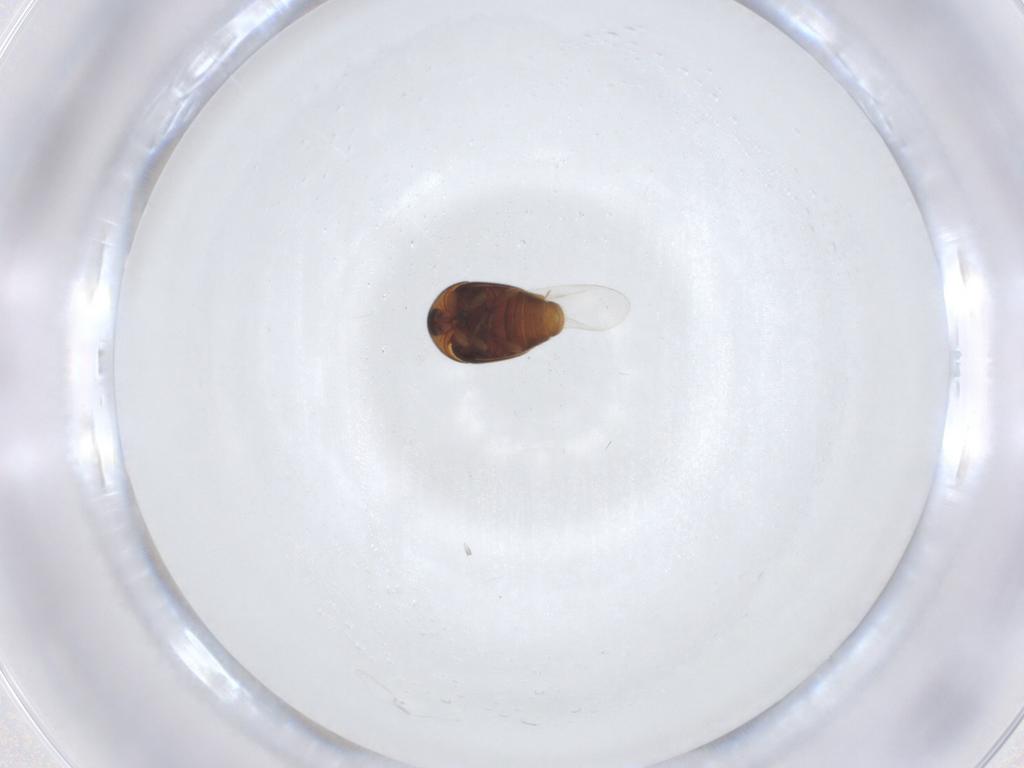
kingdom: Animalia
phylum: Arthropoda
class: Insecta
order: Coleoptera
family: Corylophidae
